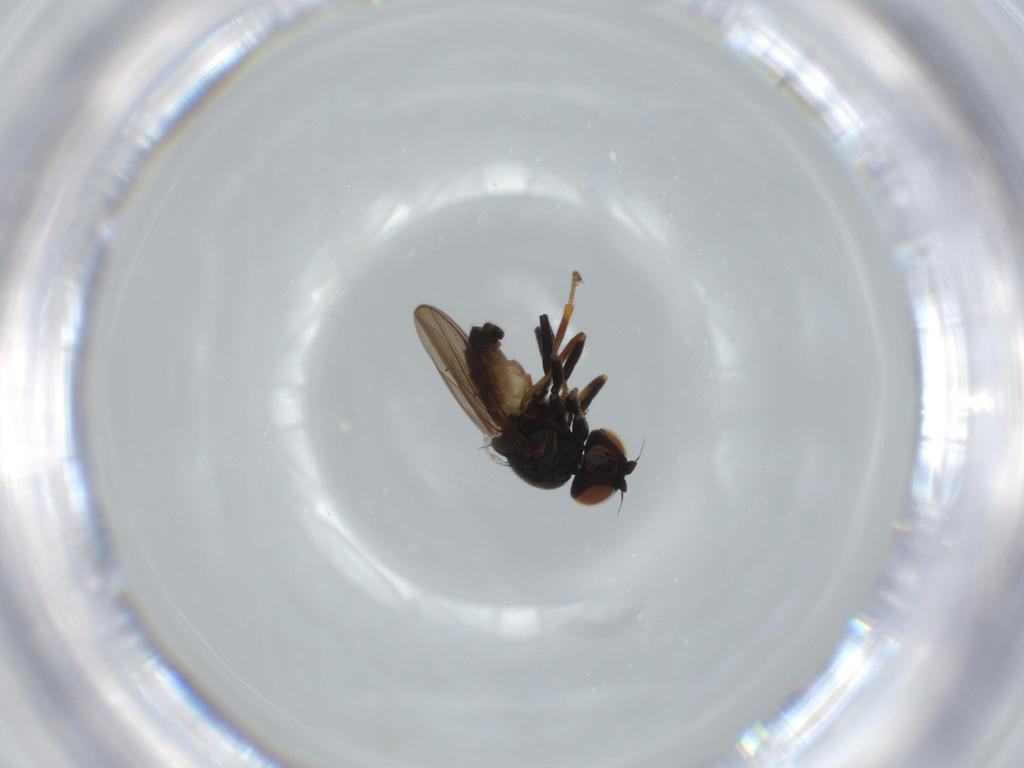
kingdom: Animalia
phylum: Arthropoda
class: Insecta
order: Diptera
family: Chloropidae
